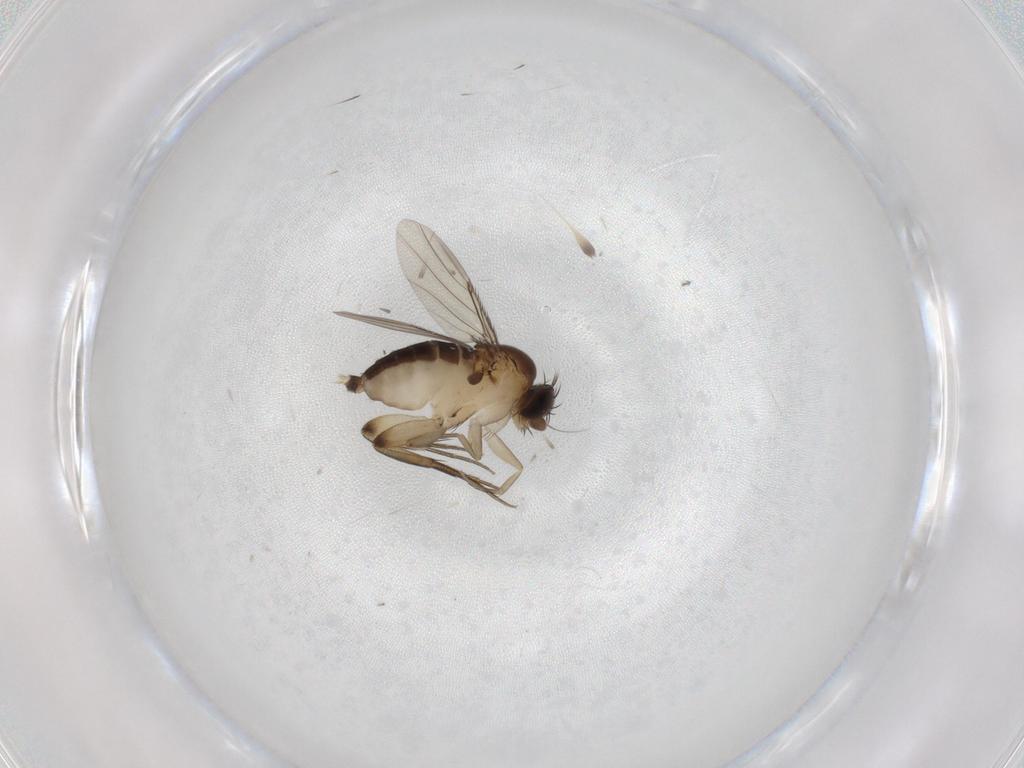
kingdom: Animalia
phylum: Arthropoda
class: Insecta
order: Diptera
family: Phoridae
